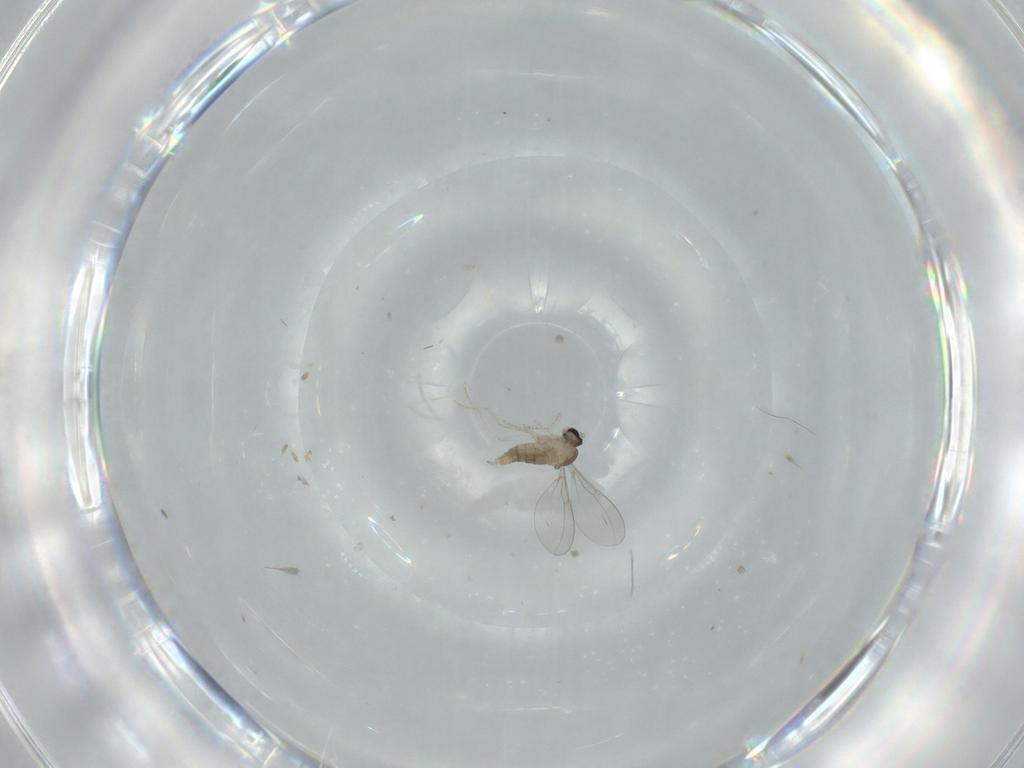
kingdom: Animalia
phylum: Arthropoda
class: Insecta
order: Diptera
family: Cecidomyiidae
